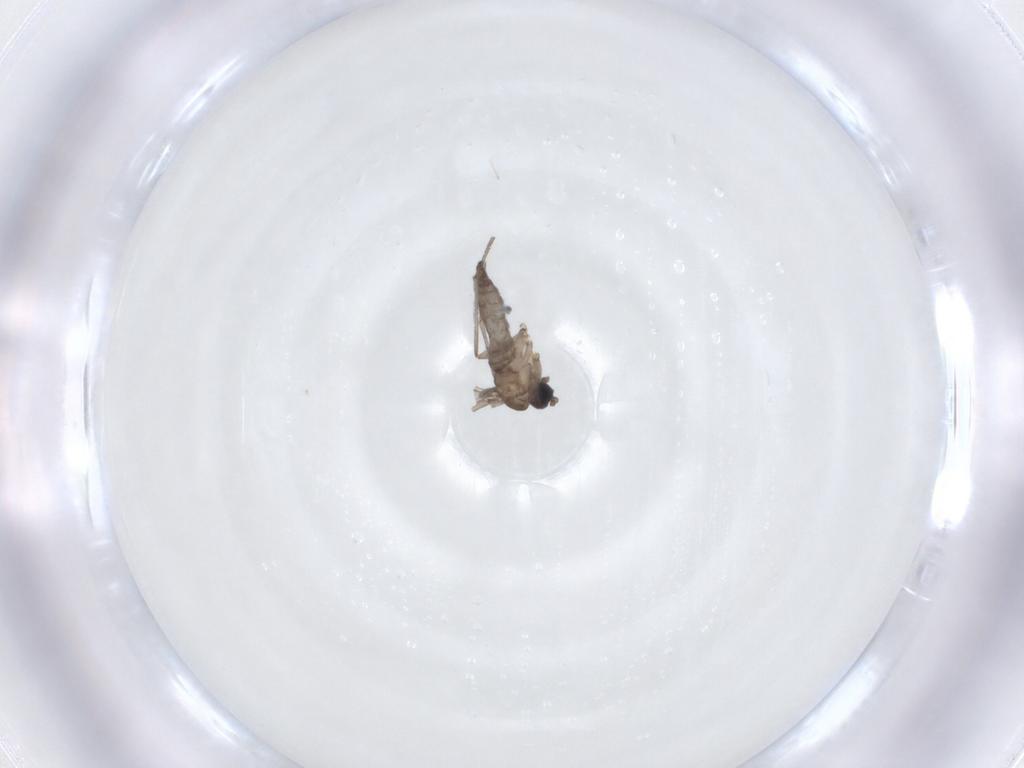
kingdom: Animalia
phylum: Arthropoda
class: Insecta
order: Diptera
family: Sciaridae
